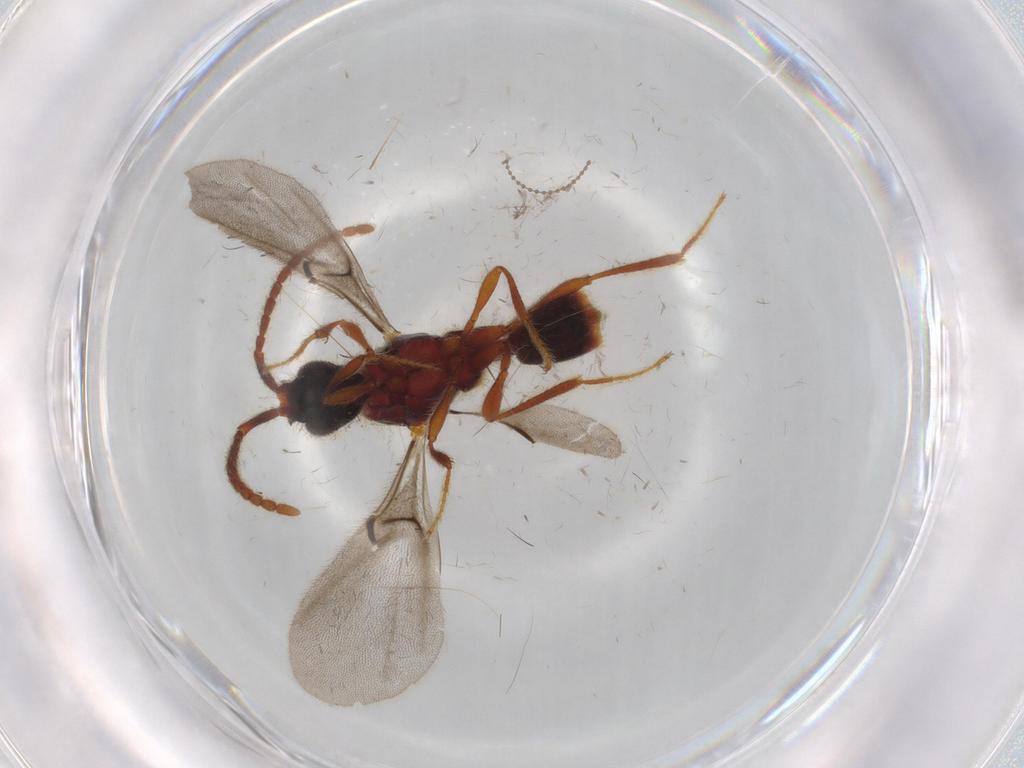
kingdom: Animalia
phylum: Arthropoda
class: Insecta
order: Hymenoptera
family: Diapriidae
